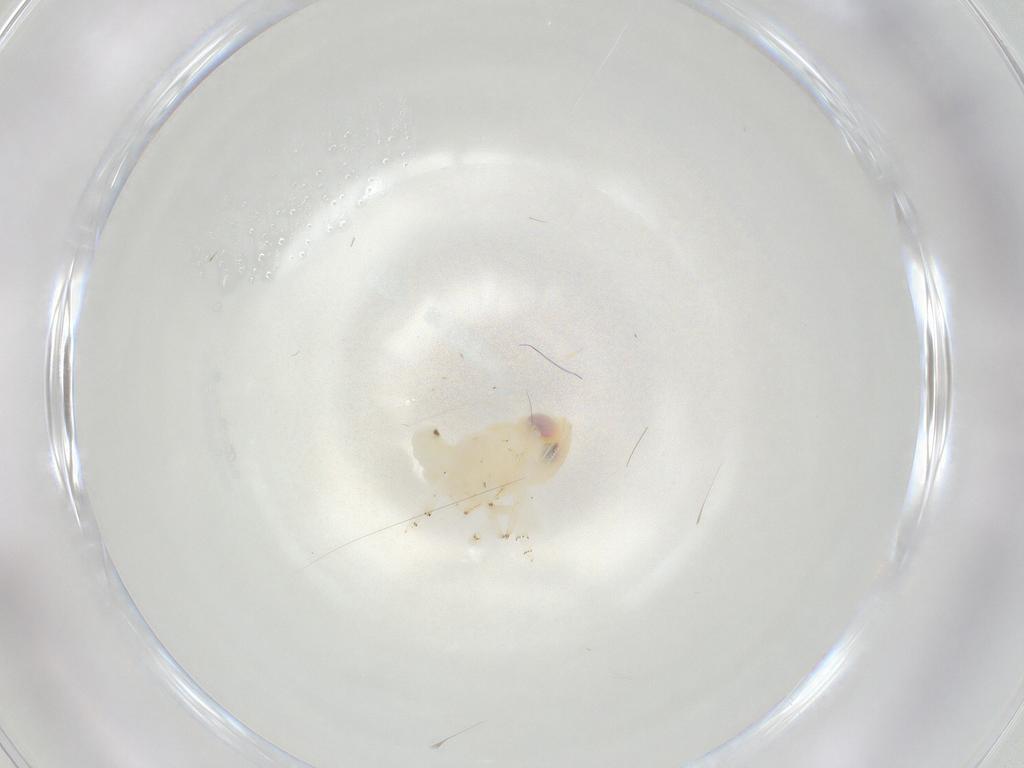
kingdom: Animalia
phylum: Arthropoda
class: Insecta
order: Hemiptera
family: Nogodinidae
